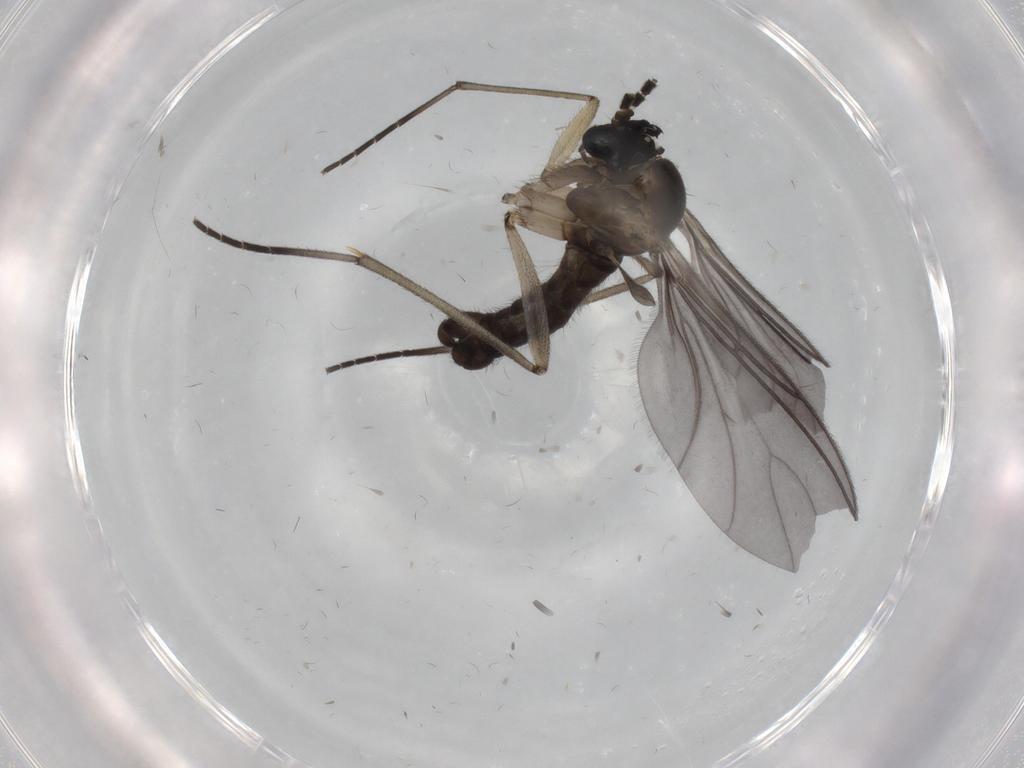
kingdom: Animalia
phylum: Arthropoda
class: Insecta
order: Diptera
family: Sciaridae
